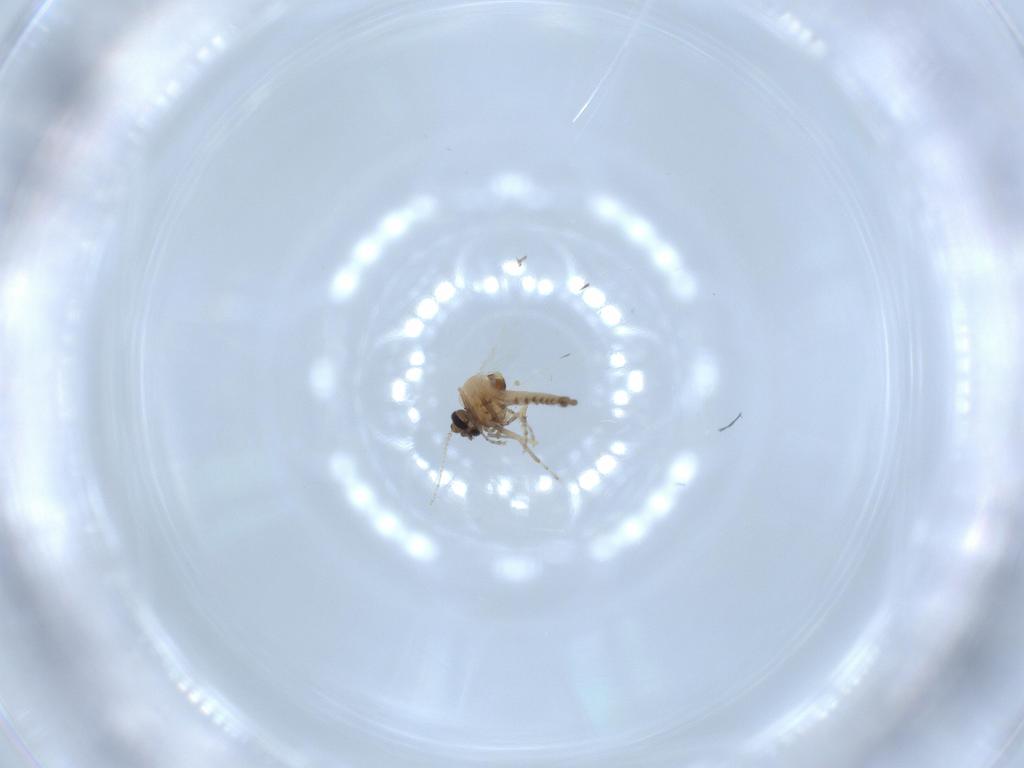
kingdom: Animalia
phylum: Arthropoda
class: Insecta
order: Diptera
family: Ceratopogonidae
